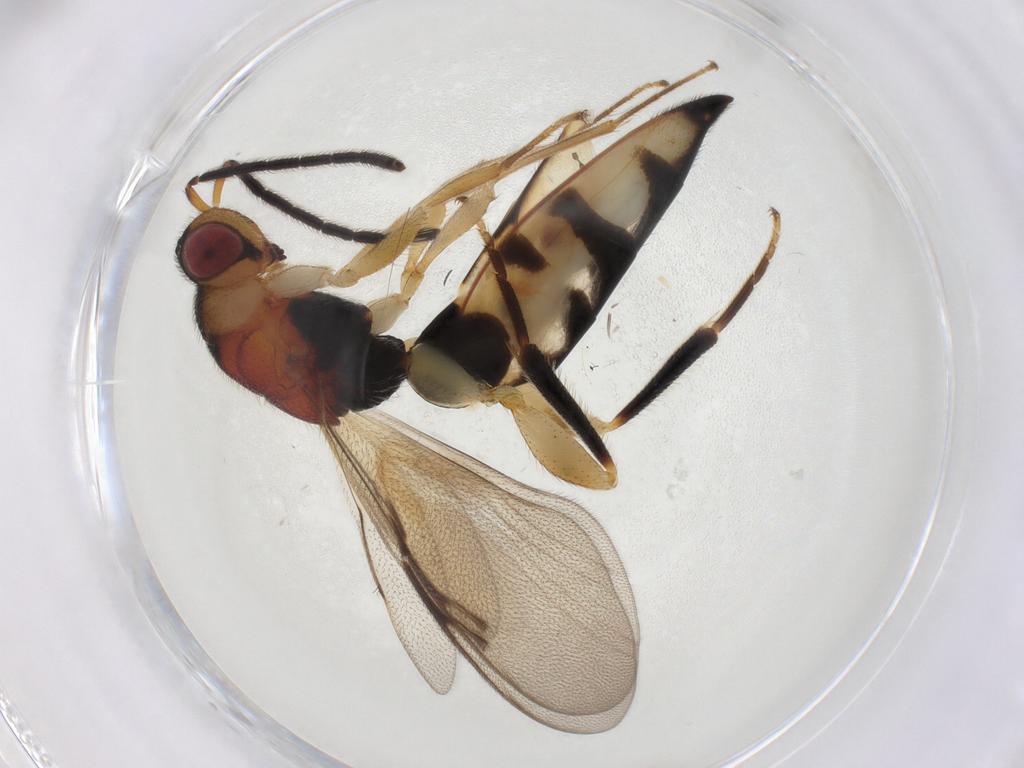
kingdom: Animalia
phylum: Arthropoda
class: Insecta
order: Hymenoptera
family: Eurytomidae
